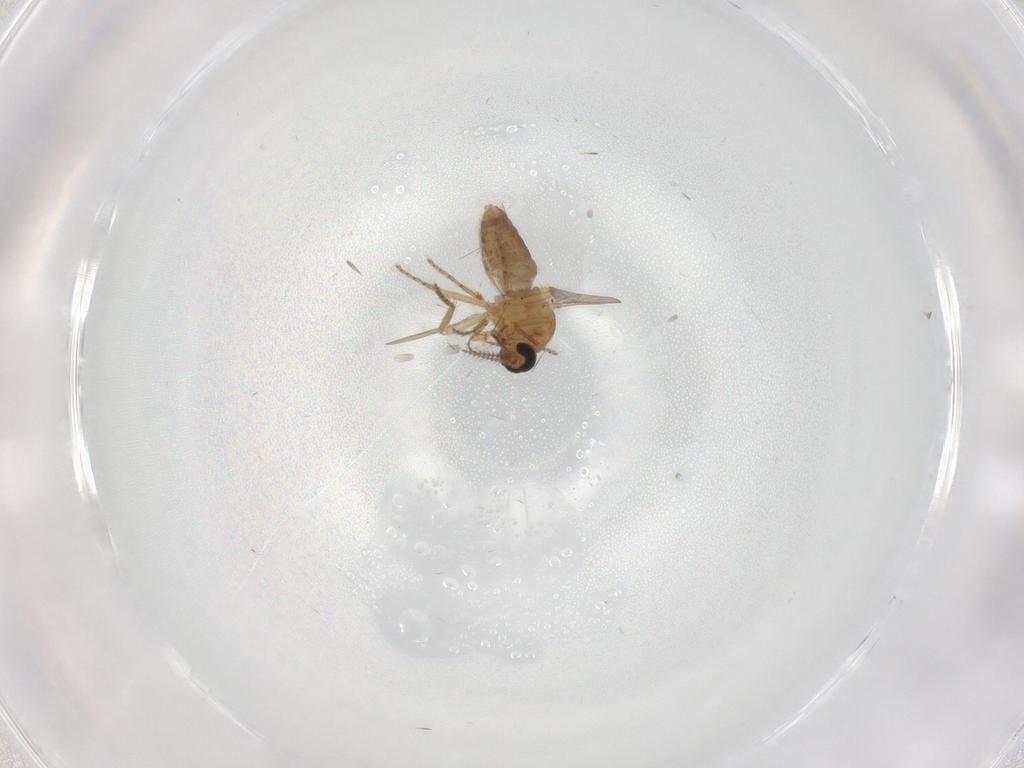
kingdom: Animalia
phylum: Arthropoda
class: Insecta
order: Diptera
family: Ceratopogonidae
